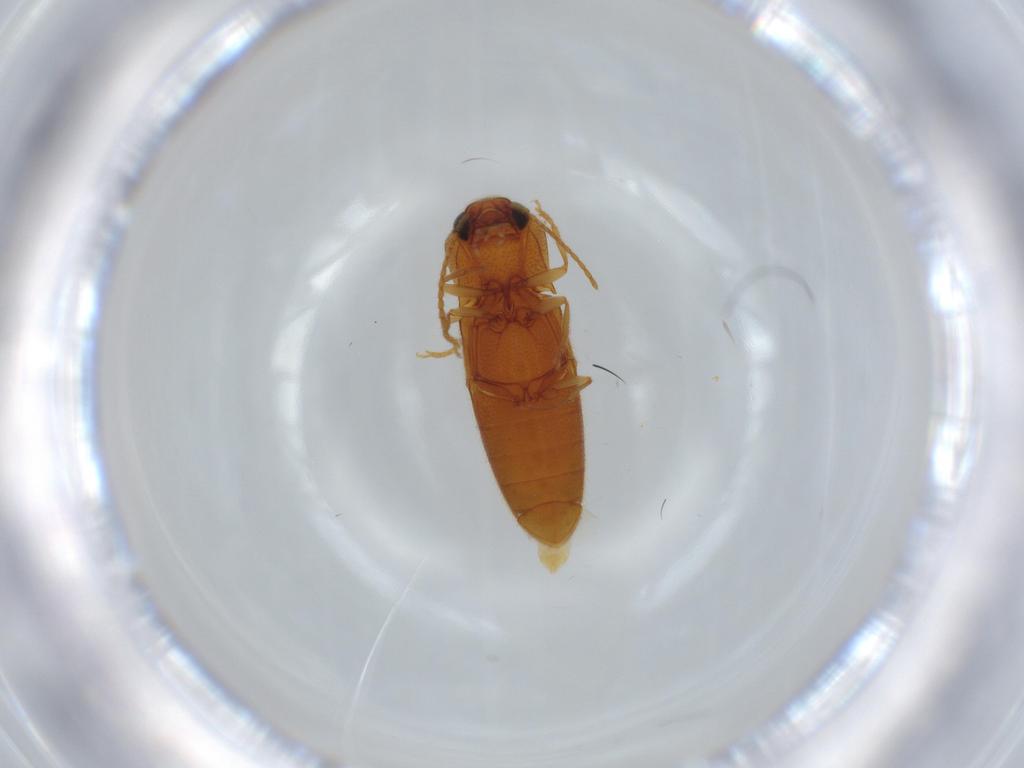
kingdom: Animalia
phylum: Arthropoda
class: Insecta
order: Coleoptera
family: Elateridae
